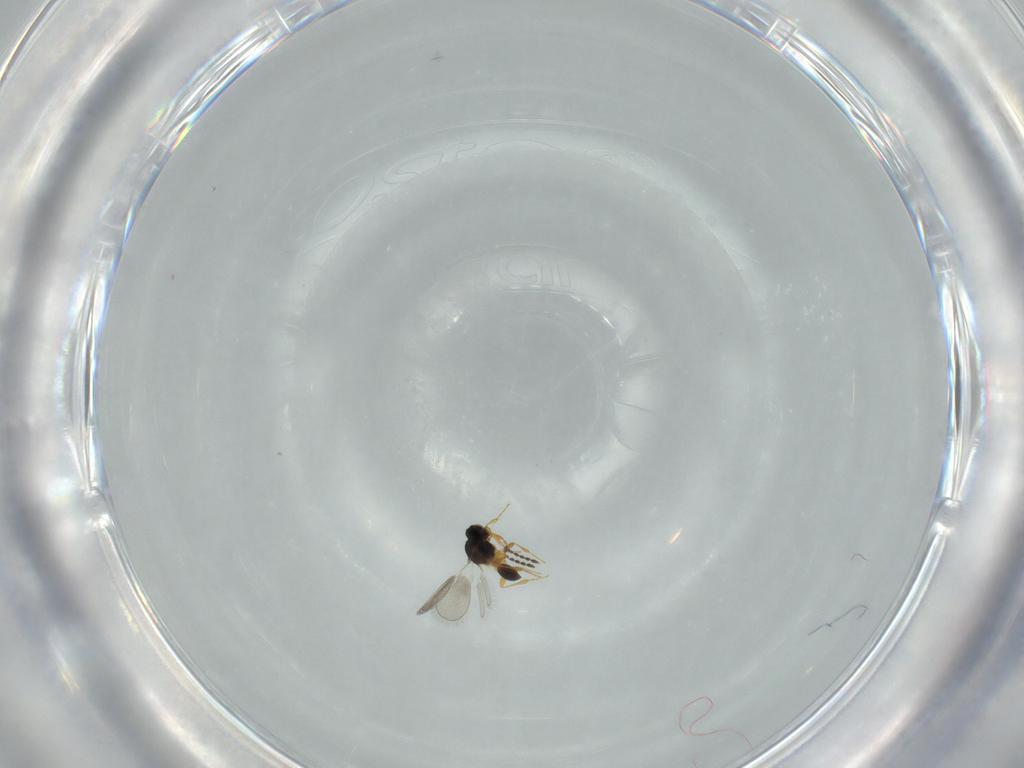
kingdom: Animalia
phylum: Arthropoda
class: Insecta
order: Hymenoptera
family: Platygastridae
